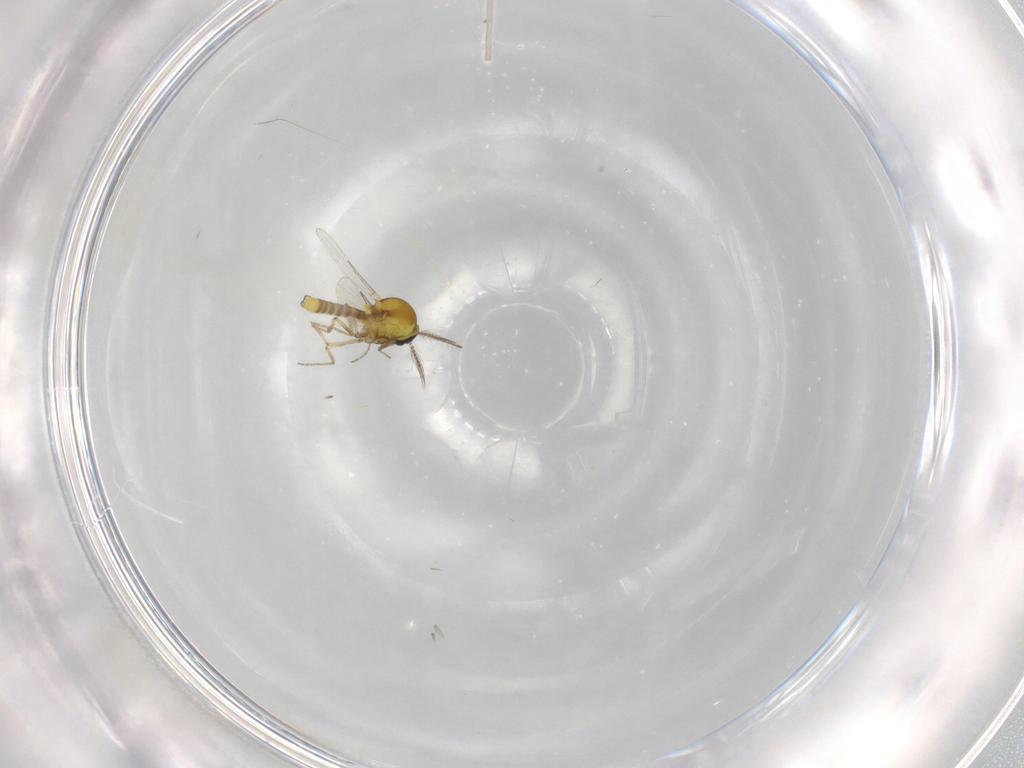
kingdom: Animalia
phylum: Arthropoda
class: Insecta
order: Diptera
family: Ceratopogonidae
